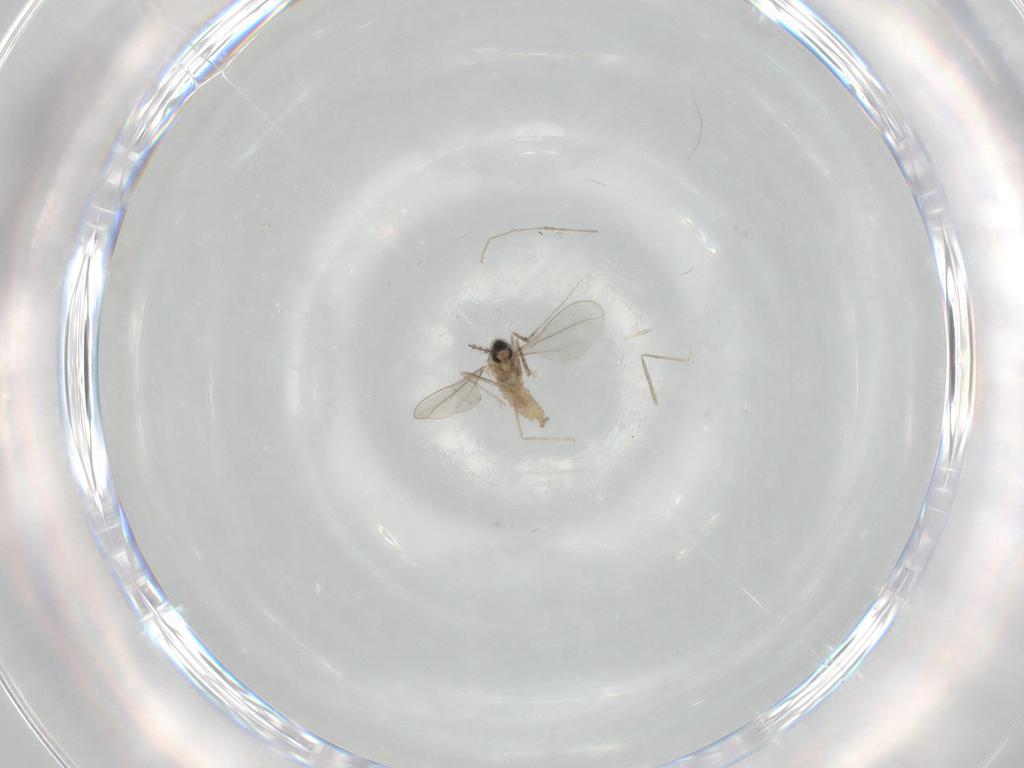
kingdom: Animalia
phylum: Arthropoda
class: Insecta
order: Diptera
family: Chironomidae
